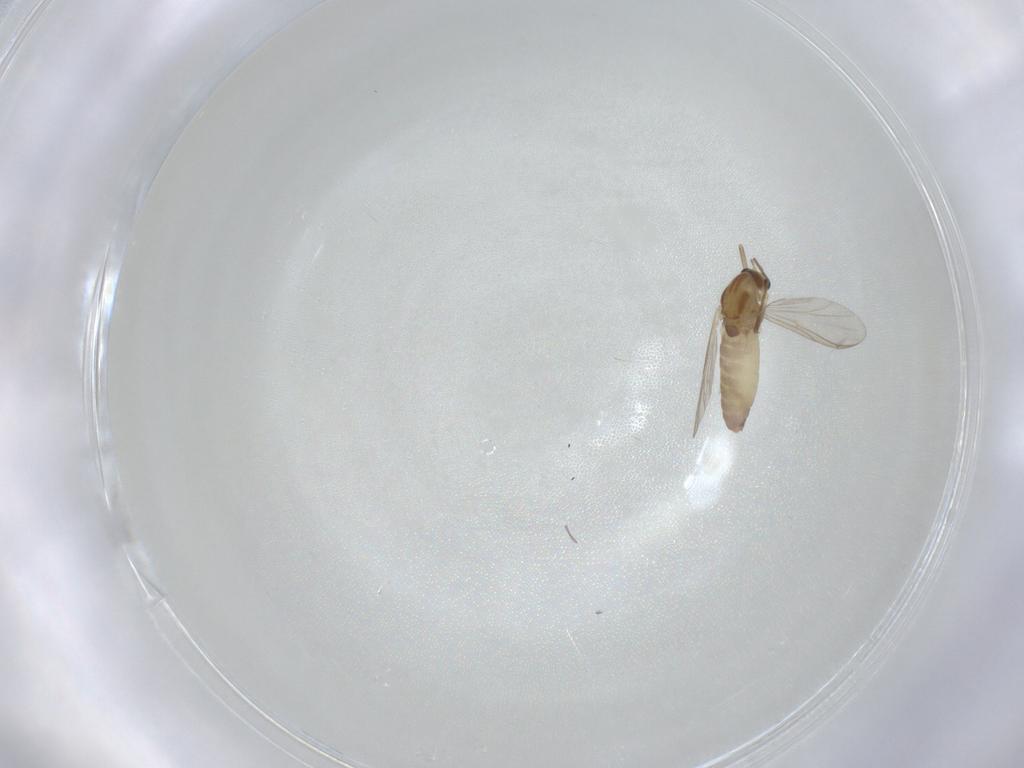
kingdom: Animalia
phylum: Arthropoda
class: Insecta
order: Diptera
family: Chironomidae
